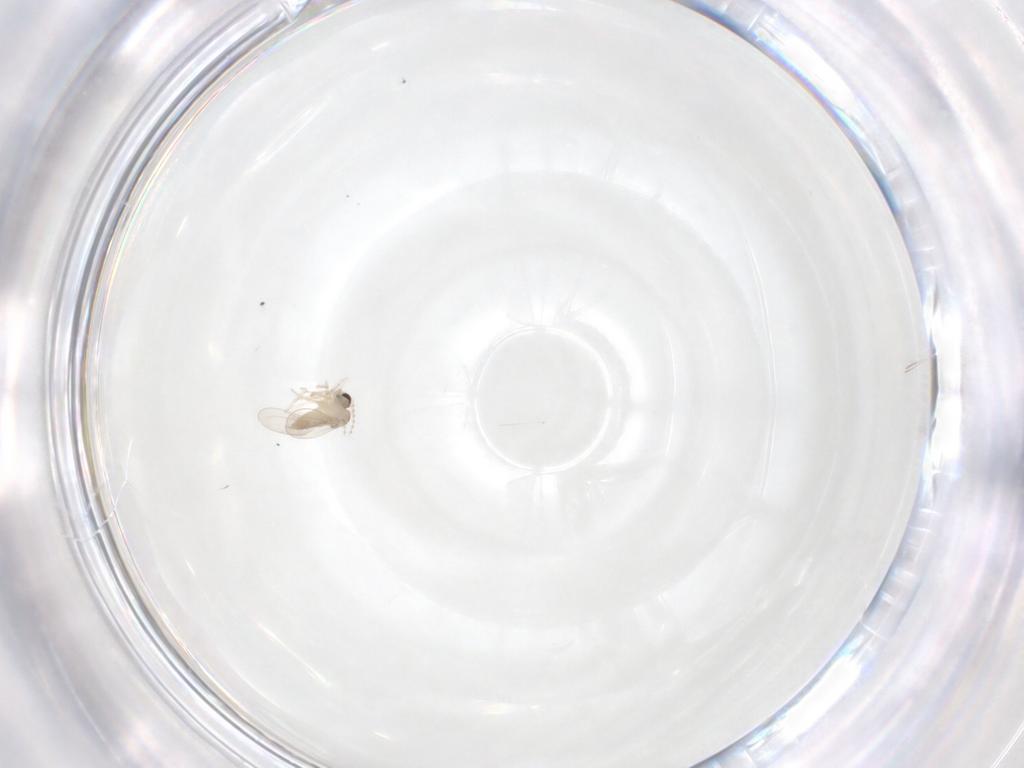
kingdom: Animalia
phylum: Arthropoda
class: Insecta
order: Diptera
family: Cecidomyiidae
